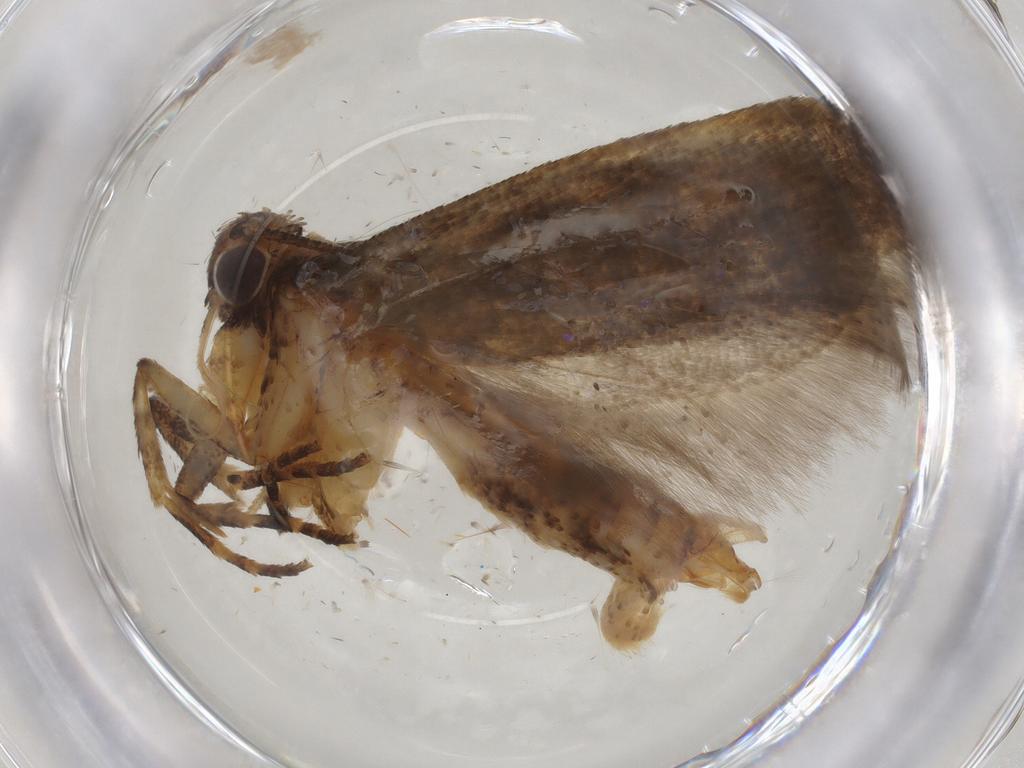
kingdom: Animalia
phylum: Arthropoda
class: Insecta
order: Lepidoptera
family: Gelechiidae
